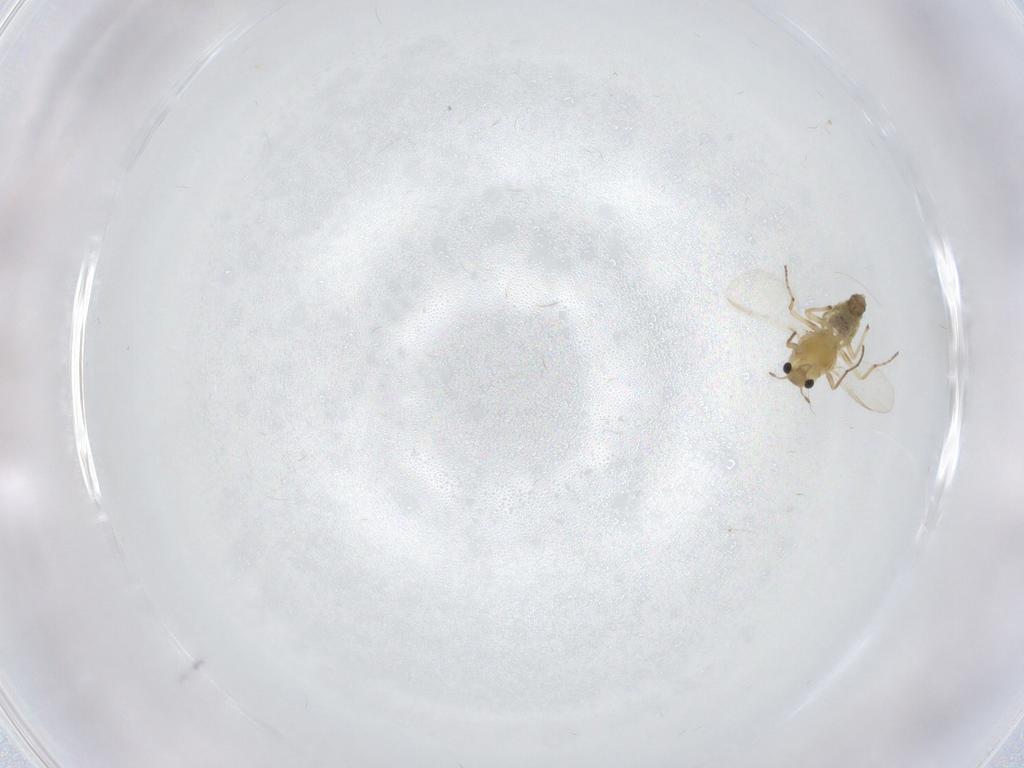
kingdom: Animalia
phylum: Arthropoda
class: Insecta
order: Diptera
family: Chironomidae
